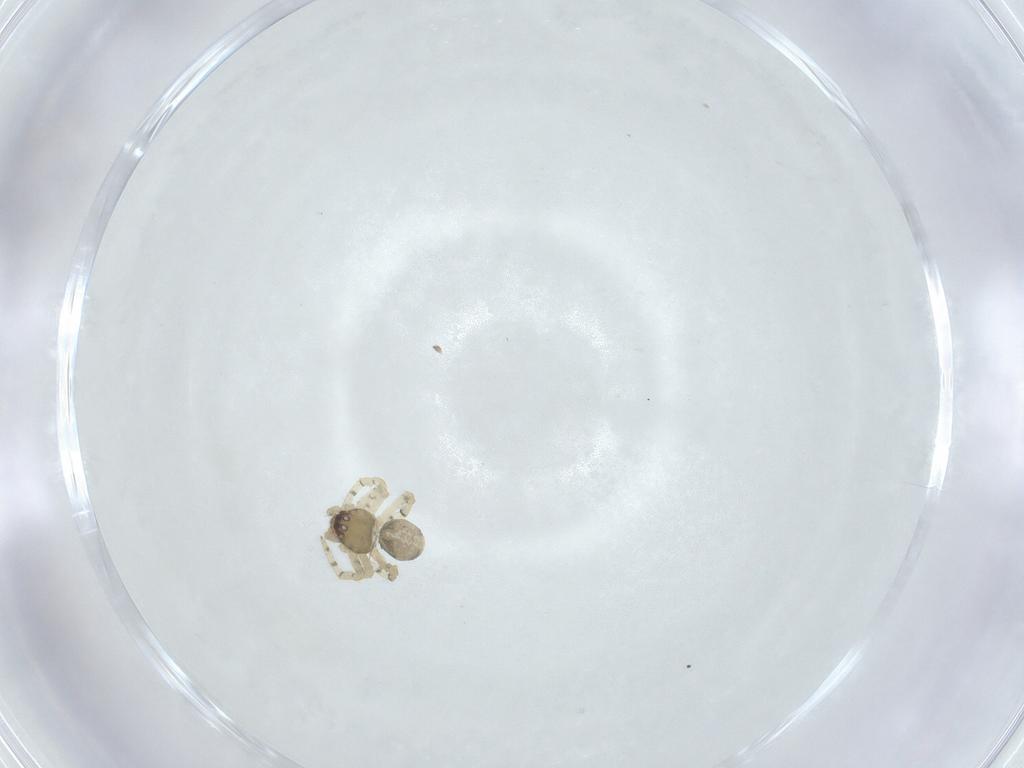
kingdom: Animalia
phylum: Arthropoda
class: Insecta
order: Hymenoptera
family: Formicidae
